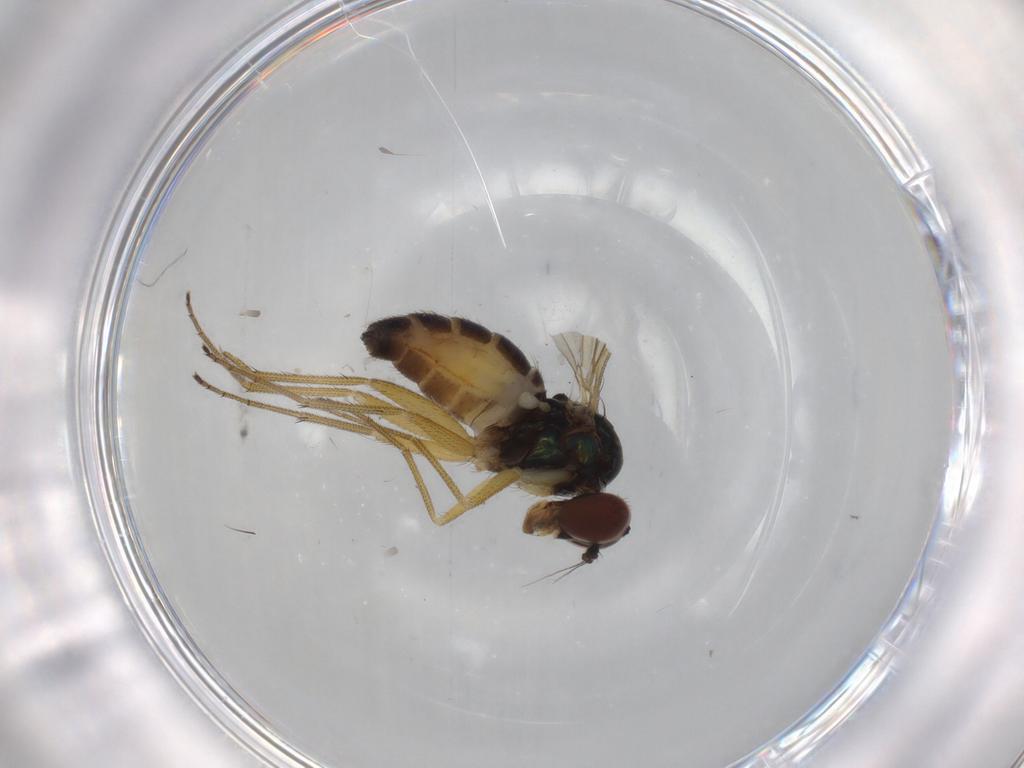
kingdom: Animalia
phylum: Arthropoda
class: Insecta
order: Diptera
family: Dolichopodidae
